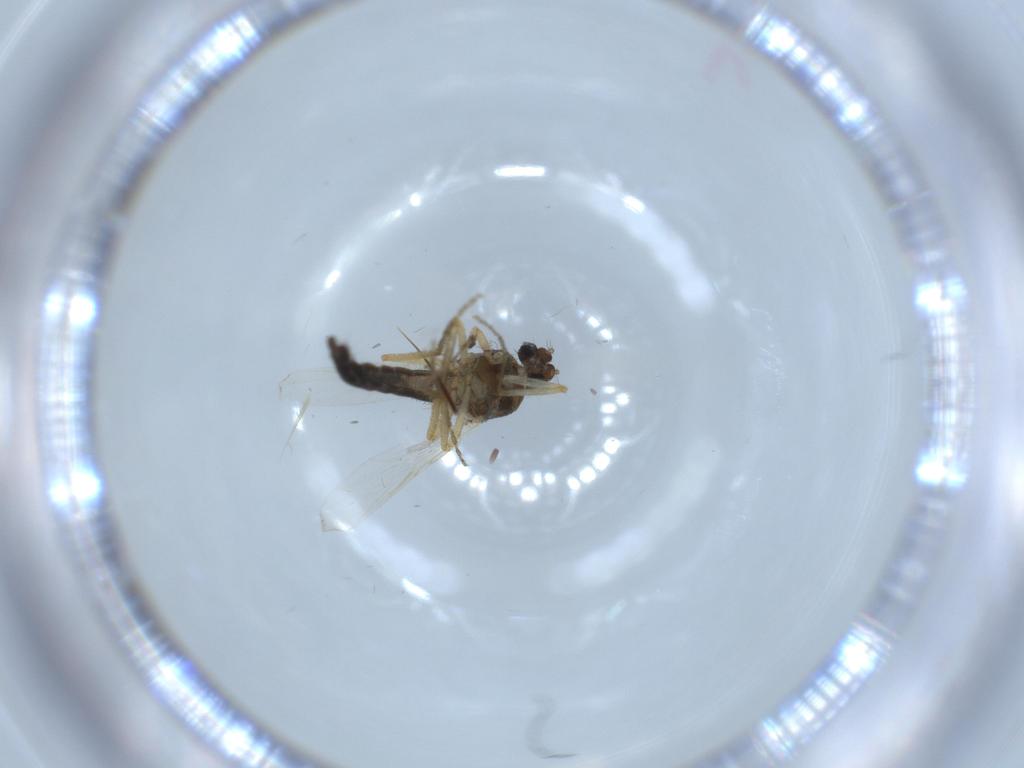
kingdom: Animalia
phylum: Arthropoda
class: Insecta
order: Diptera
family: Ceratopogonidae
